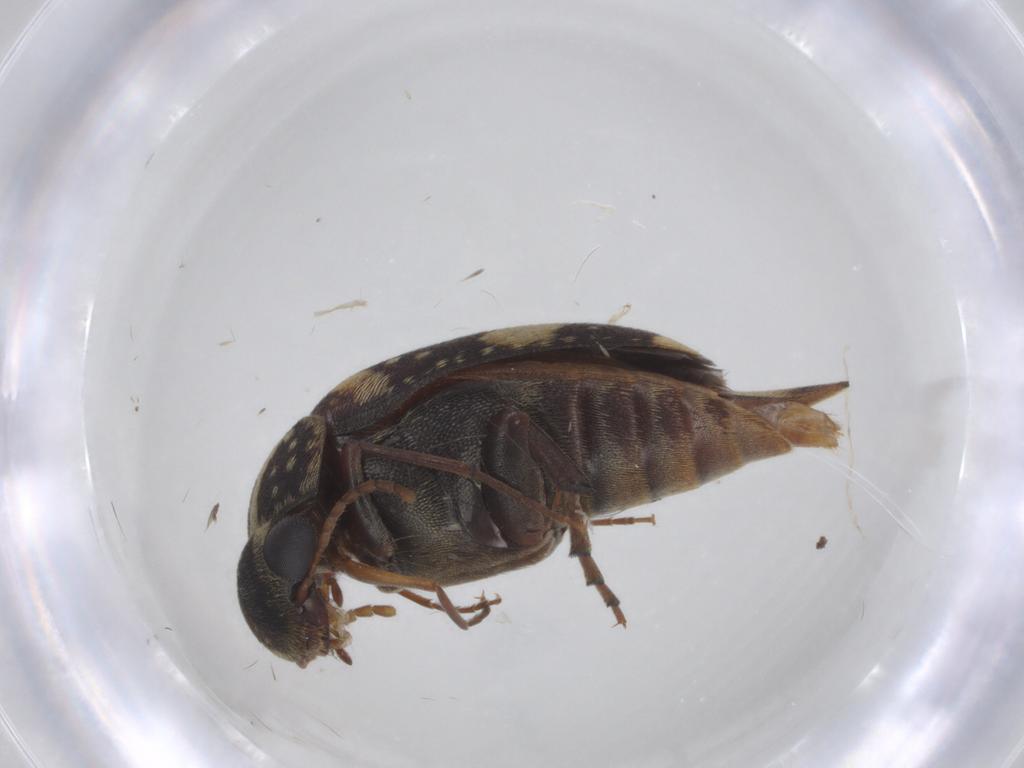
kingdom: Animalia
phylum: Arthropoda
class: Insecta
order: Coleoptera
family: Mordellidae
